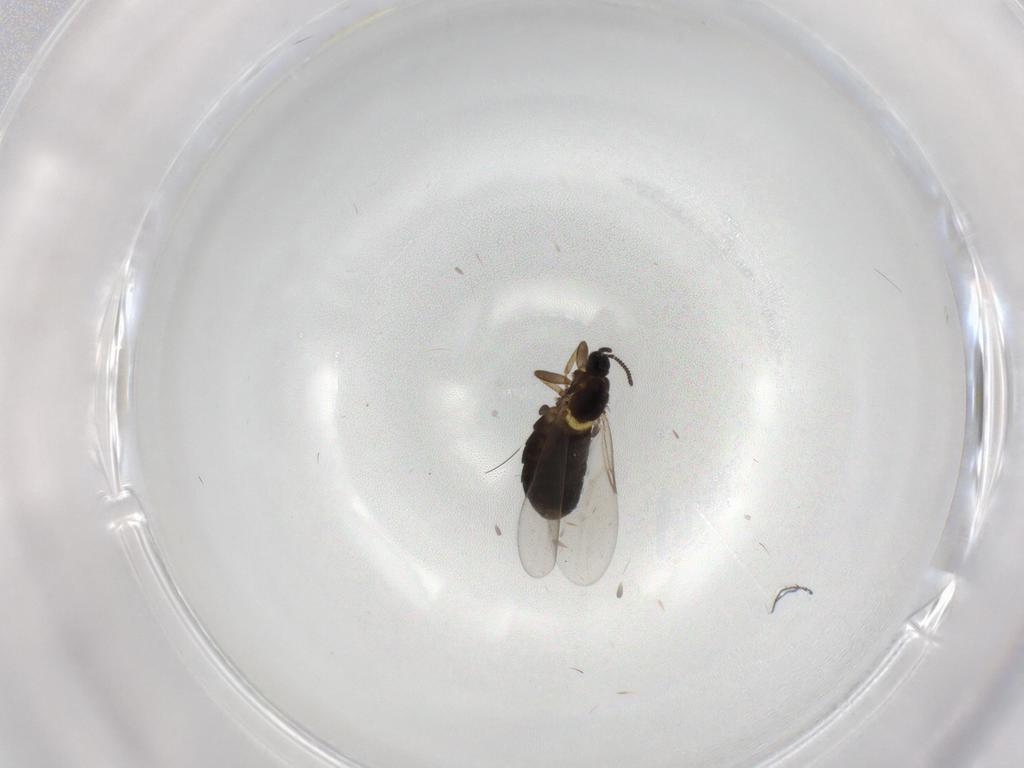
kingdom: Animalia
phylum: Arthropoda
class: Insecta
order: Diptera
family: Scatopsidae
